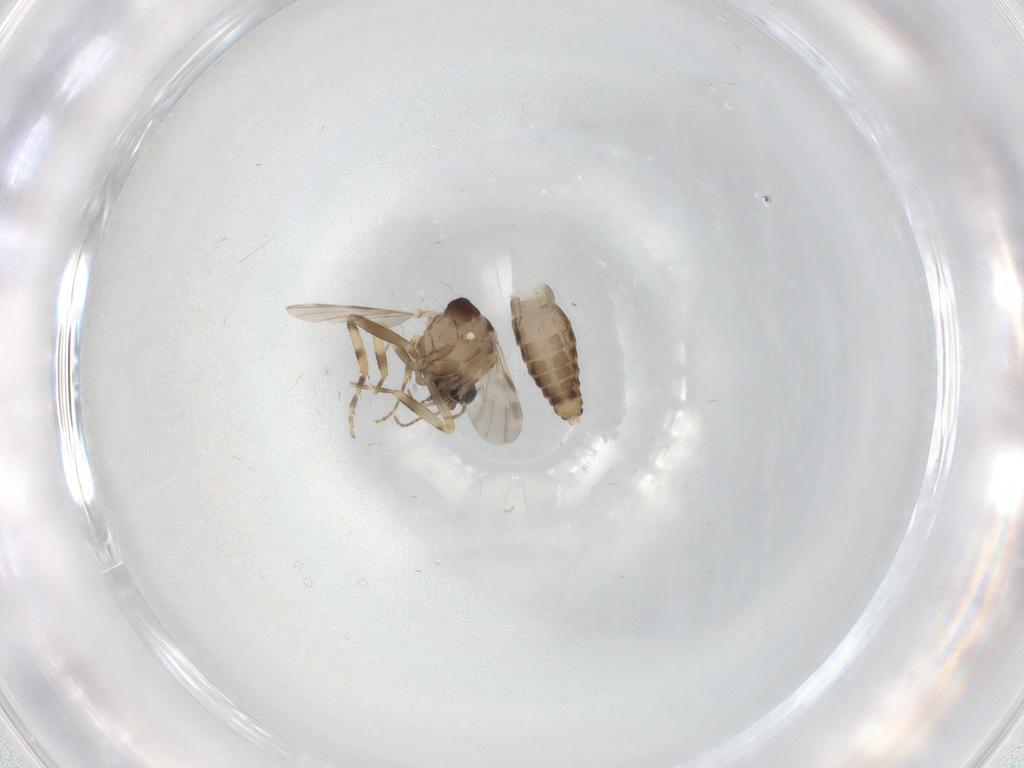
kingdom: Animalia
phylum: Arthropoda
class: Insecta
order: Diptera
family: Ceratopogonidae
